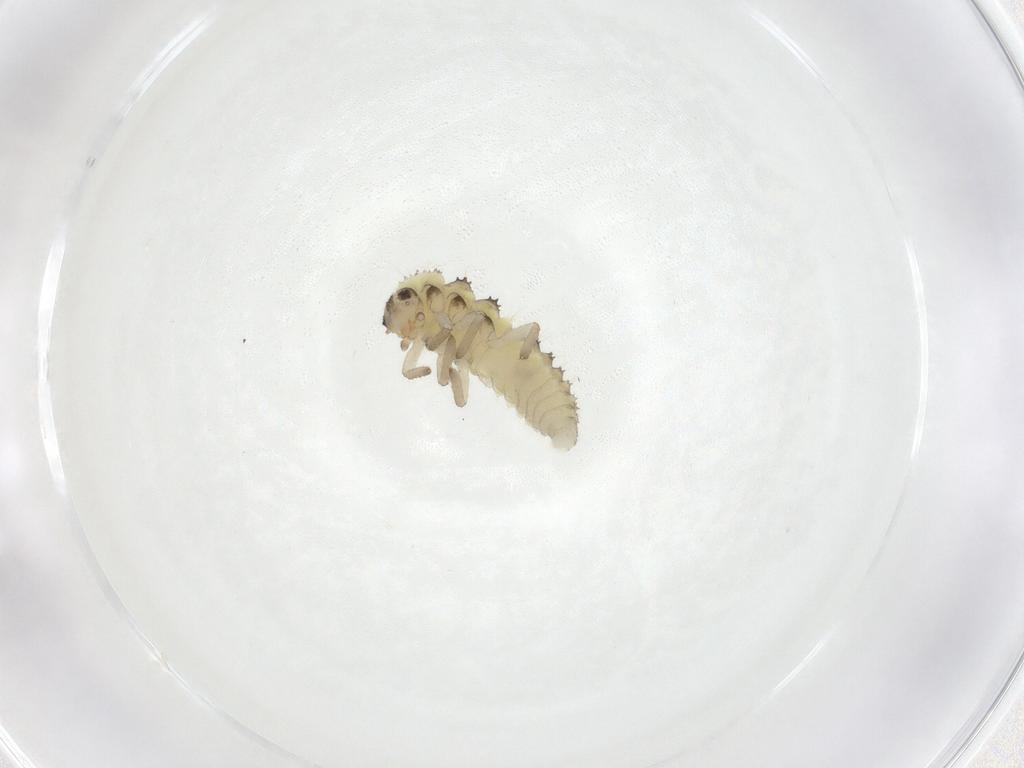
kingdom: Animalia
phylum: Arthropoda
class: Insecta
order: Coleoptera
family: Coccinellidae
